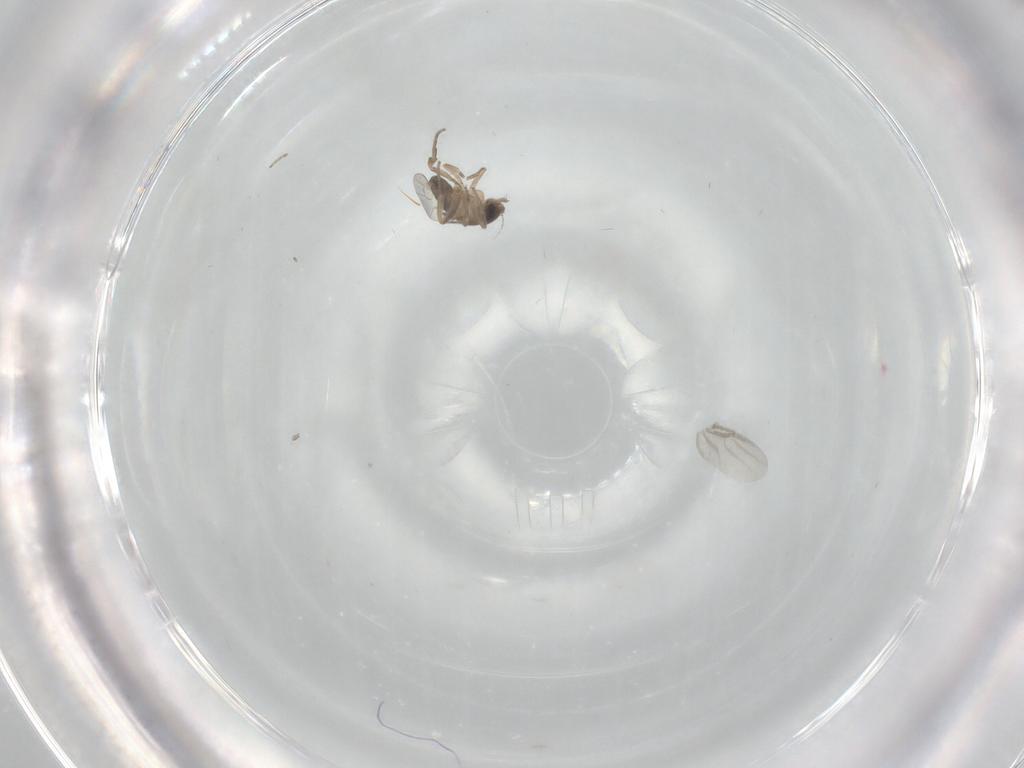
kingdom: Animalia
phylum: Arthropoda
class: Insecta
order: Diptera
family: Phoridae
